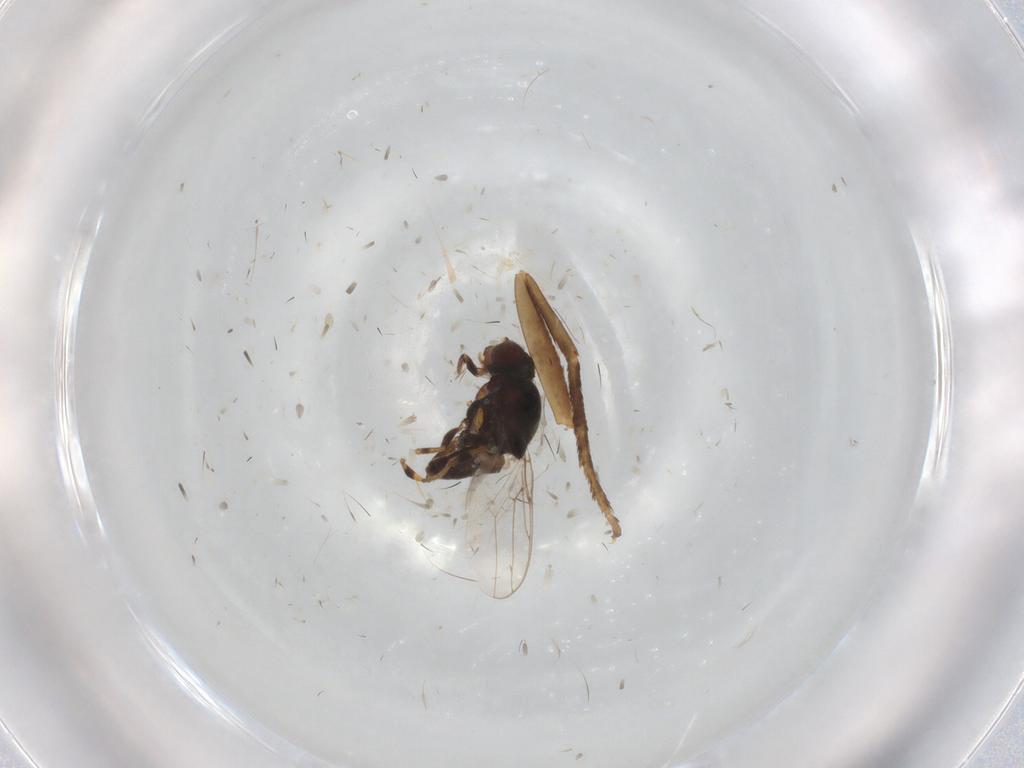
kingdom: Animalia
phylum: Arthropoda
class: Insecta
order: Diptera
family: Chloropidae
